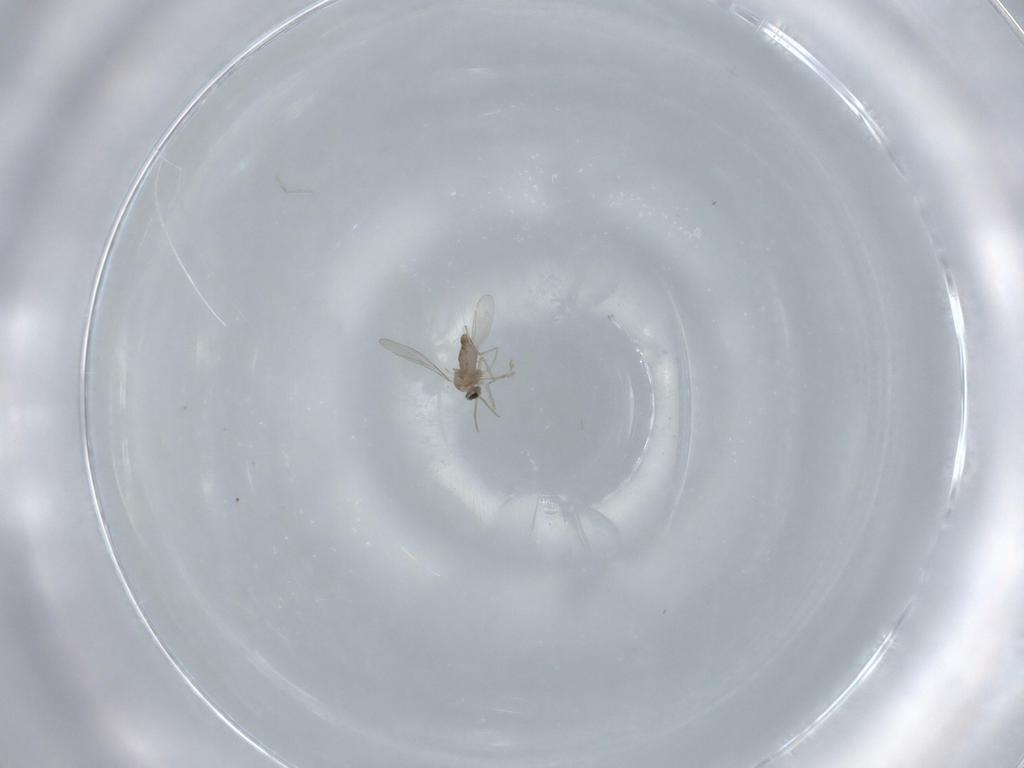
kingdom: Animalia
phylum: Arthropoda
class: Insecta
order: Diptera
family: Cecidomyiidae
